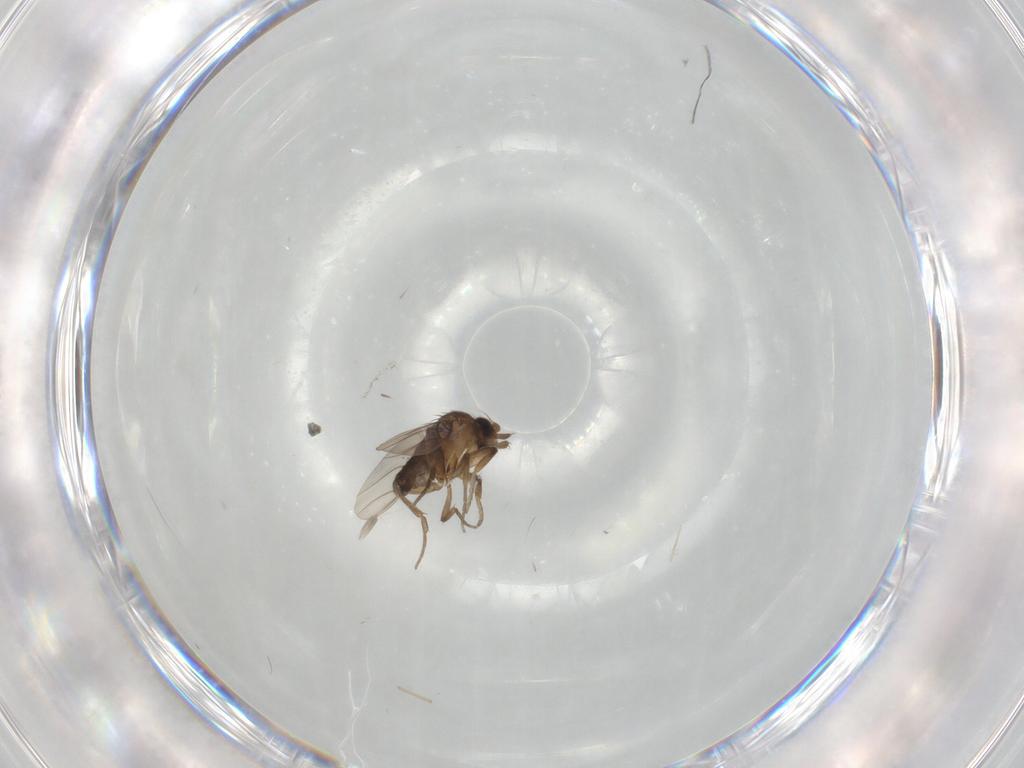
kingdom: Animalia
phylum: Arthropoda
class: Insecta
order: Diptera
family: Phoridae
